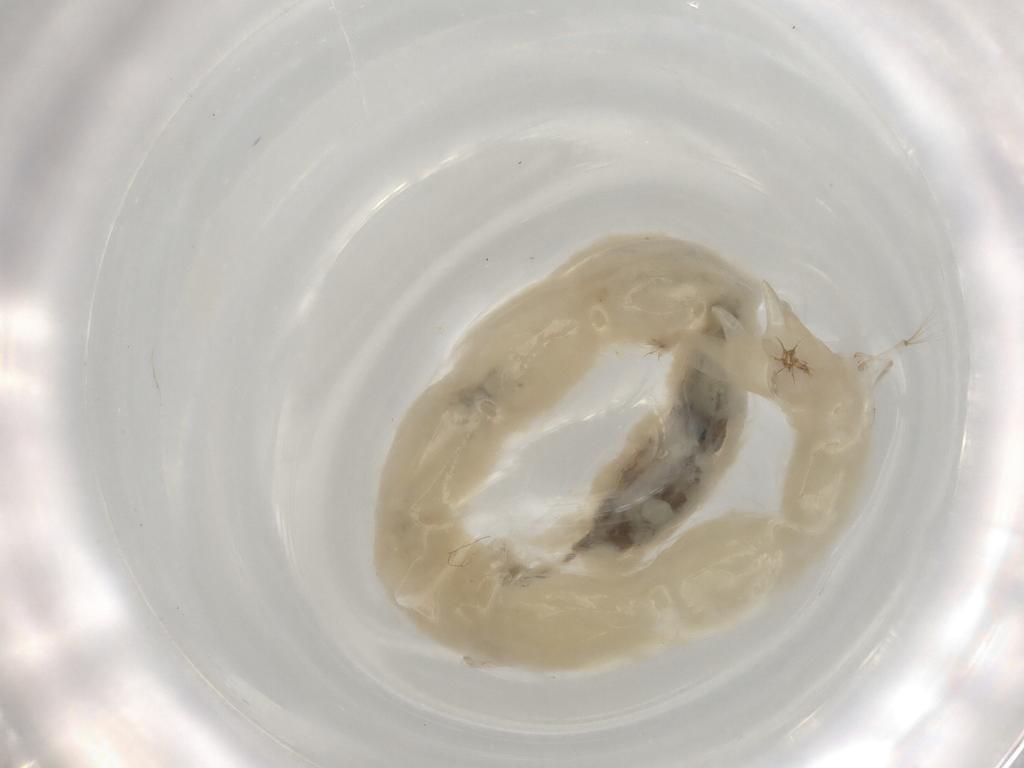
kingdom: Animalia
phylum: Arthropoda
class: Insecta
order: Diptera
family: Chironomidae
